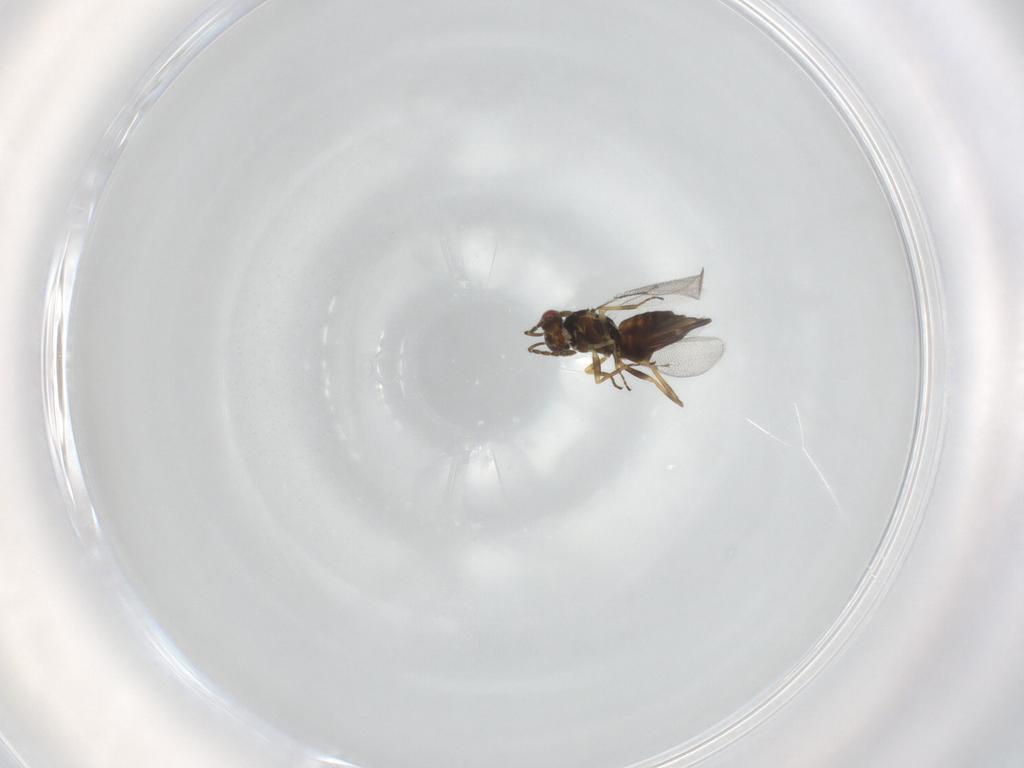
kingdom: Animalia
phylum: Arthropoda
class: Insecta
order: Hymenoptera
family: Eulophidae
